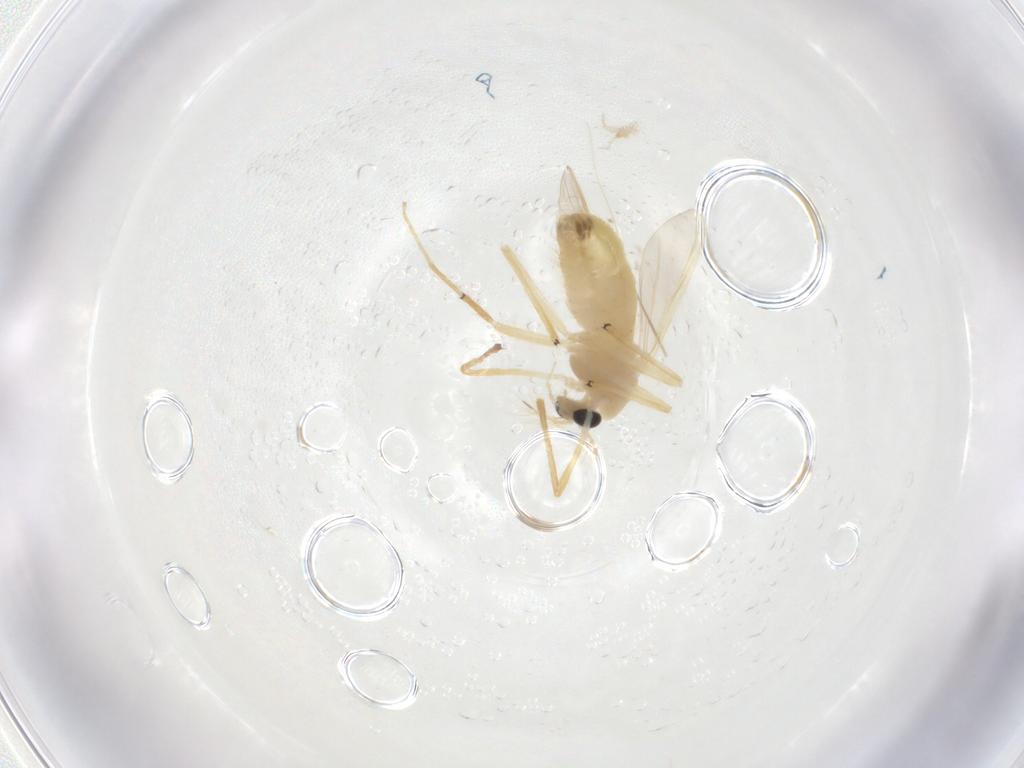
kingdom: Animalia
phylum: Arthropoda
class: Insecta
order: Diptera
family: Chironomidae
